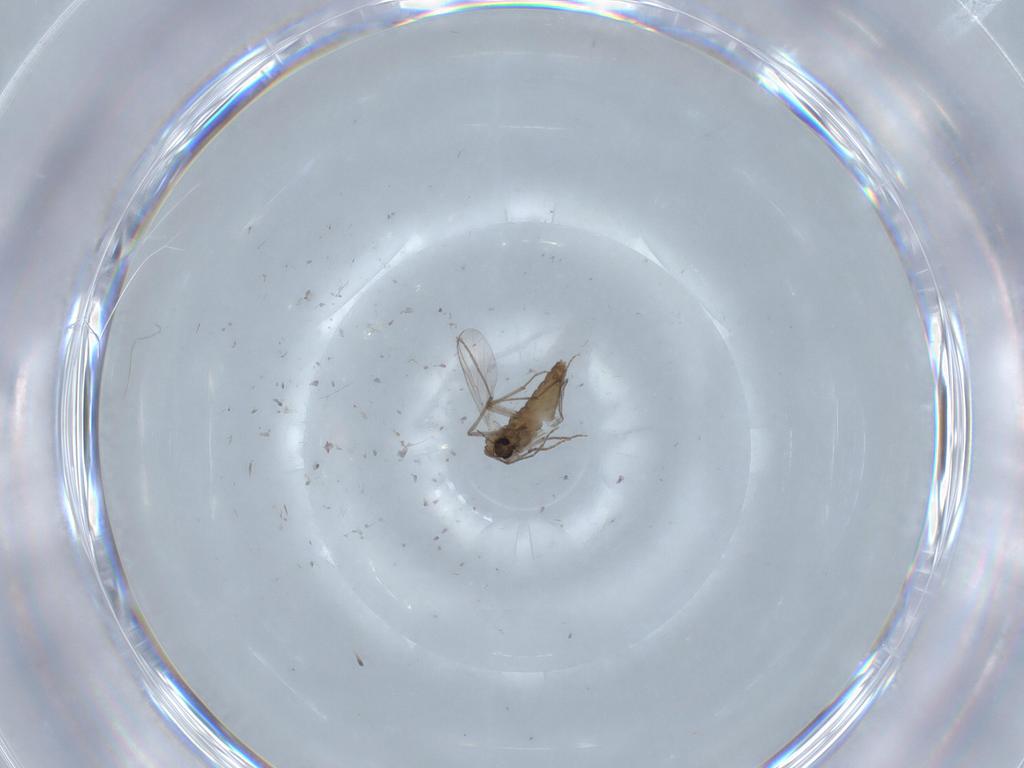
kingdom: Animalia
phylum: Arthropoda
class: Insecta
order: Diptera
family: Chironomidae
